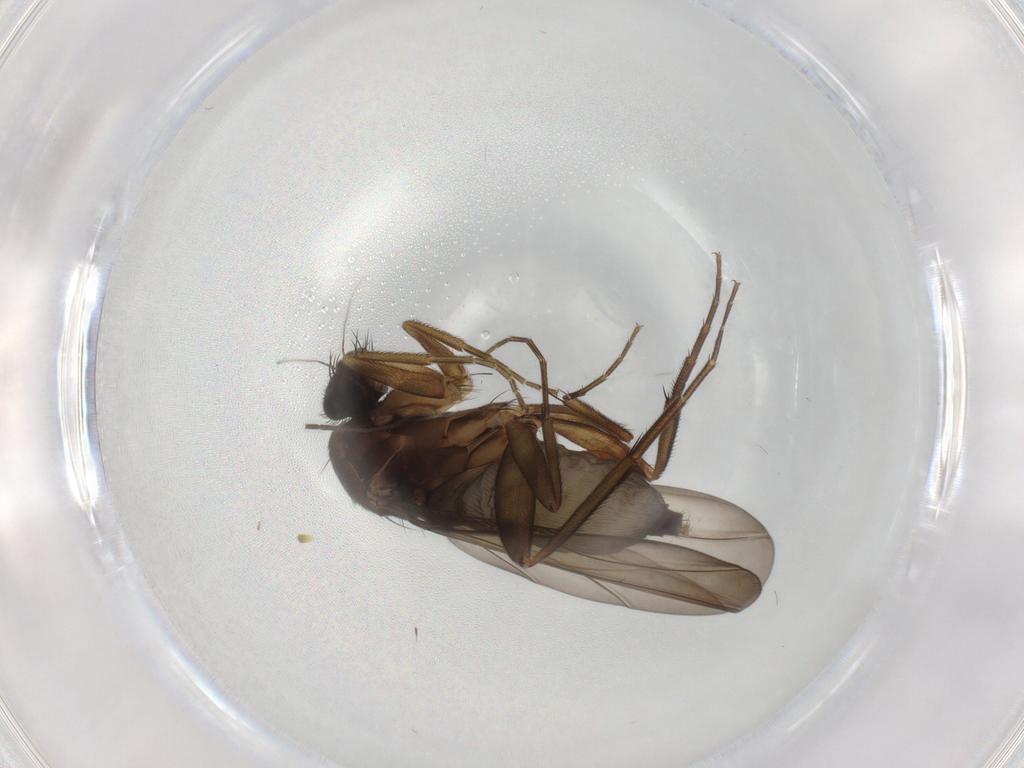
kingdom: Animalia
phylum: Arthropoda
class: Insecta
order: Diptera
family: Phoridae
